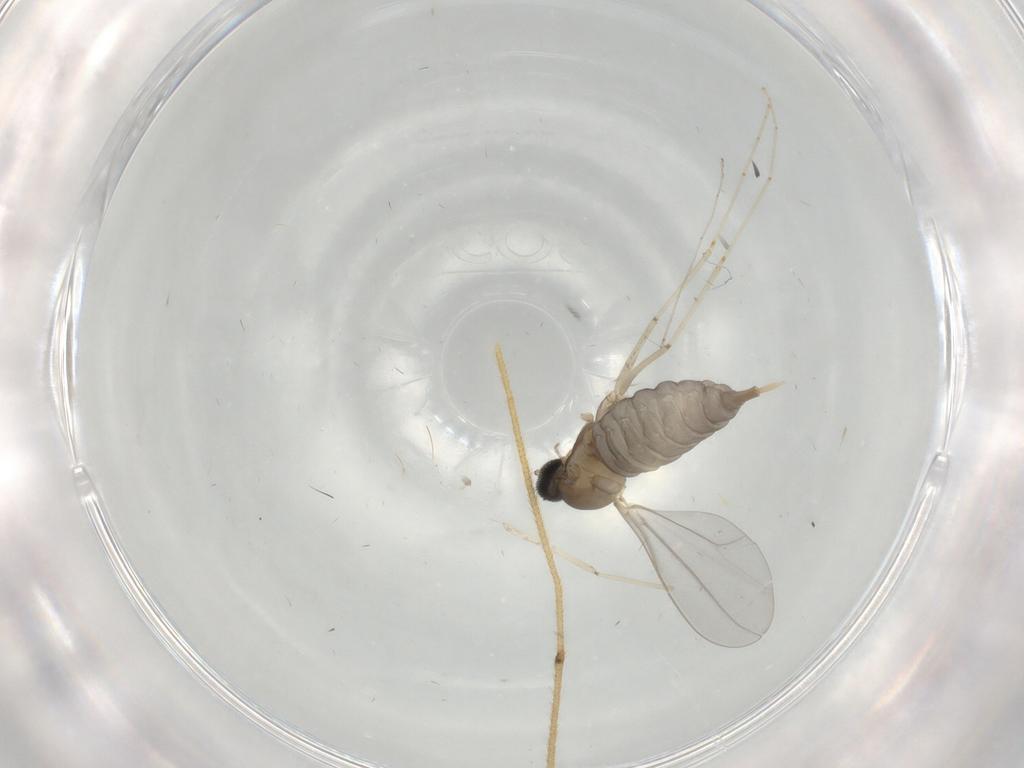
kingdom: Animalia
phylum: Arthropoda
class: Insecta
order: Diptera
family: Cecidomyiidae
